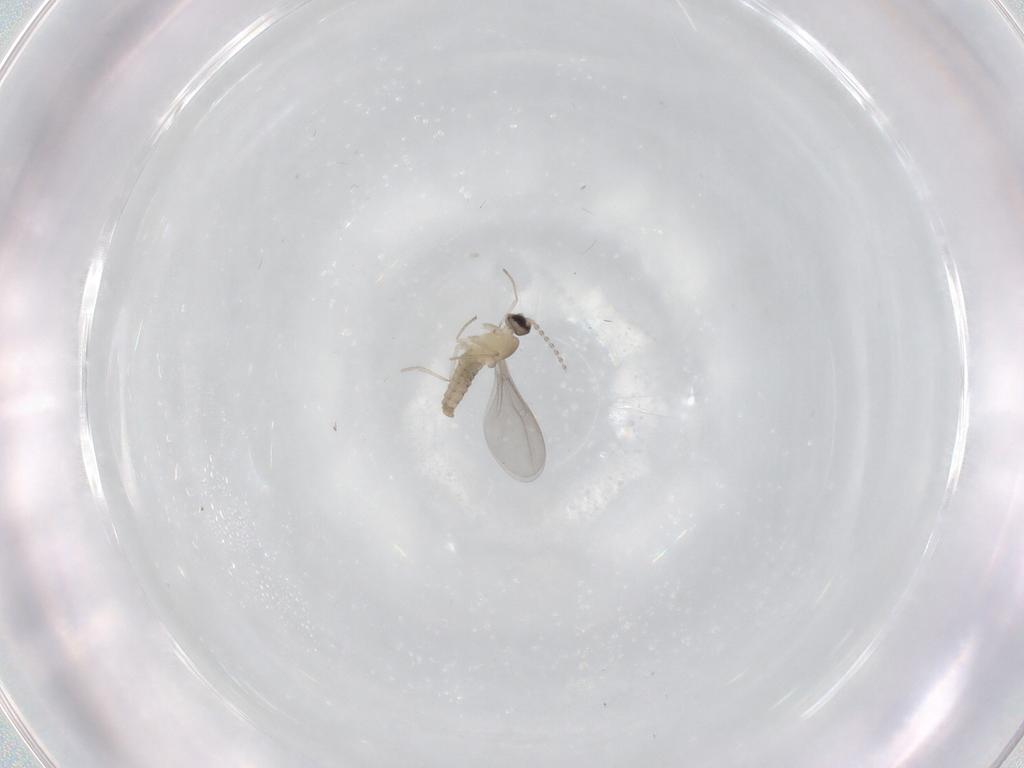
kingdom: Animalia
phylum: Arthropoda
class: Insecta
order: Diptera
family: Cecidomyiidae
